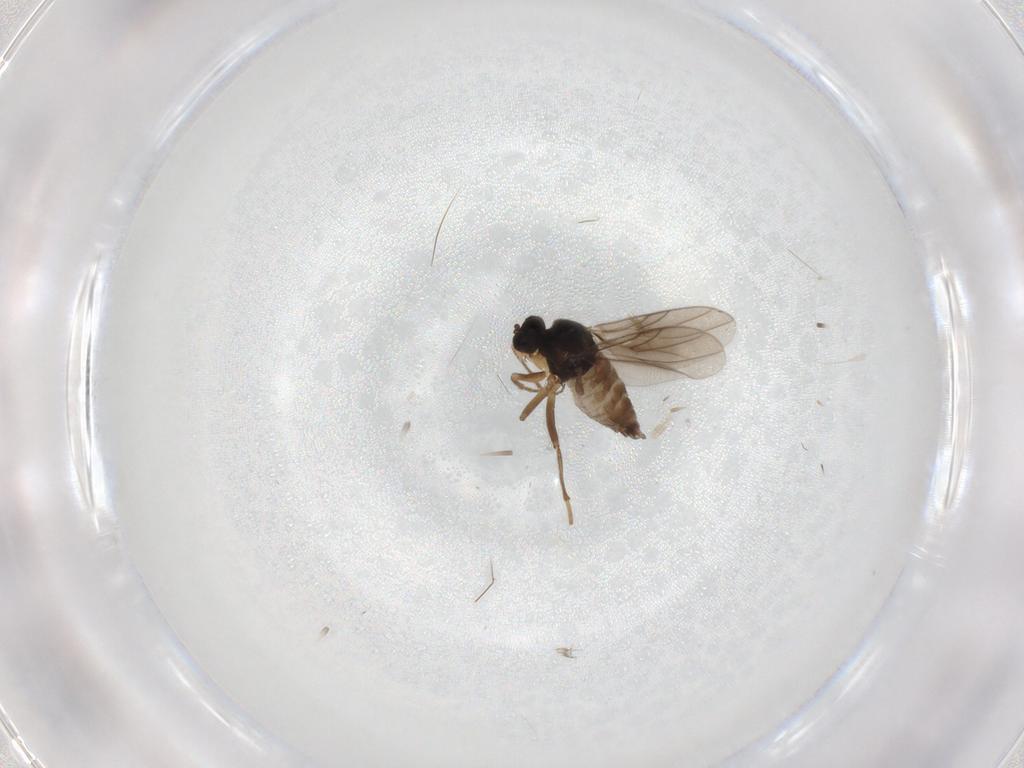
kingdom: Animalia
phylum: Arthropoda
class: Insecta
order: Diptera
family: Hybotidae
